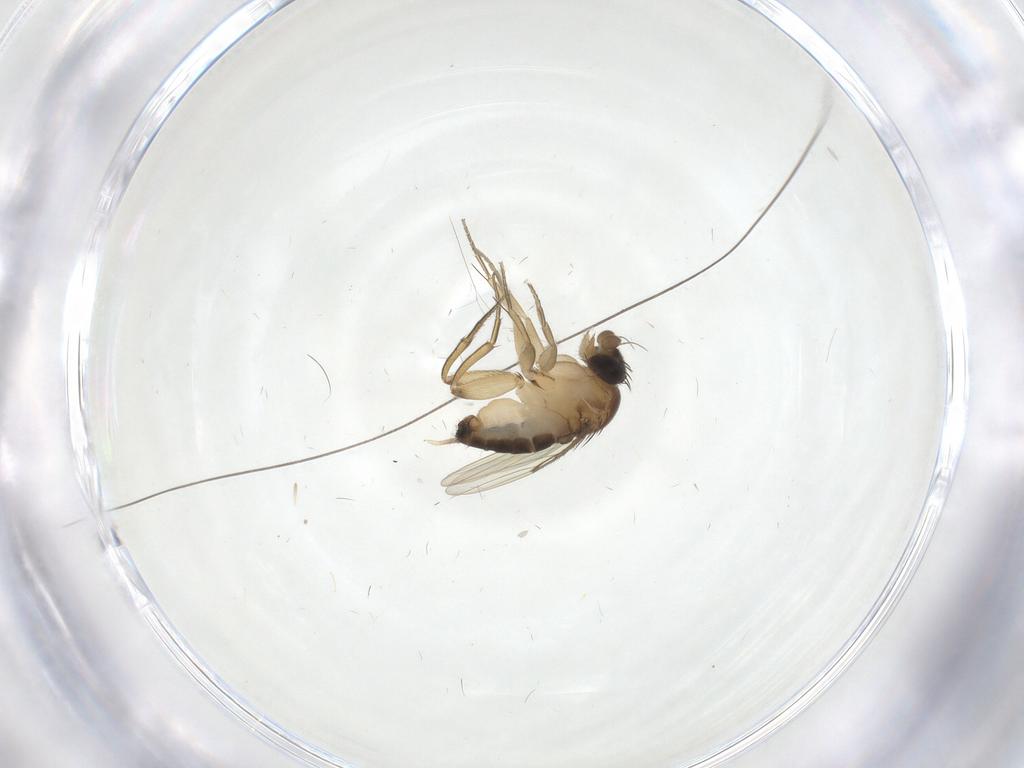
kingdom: Animalia
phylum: Arthropoda
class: Insecta
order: Diptera
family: Phoridae
